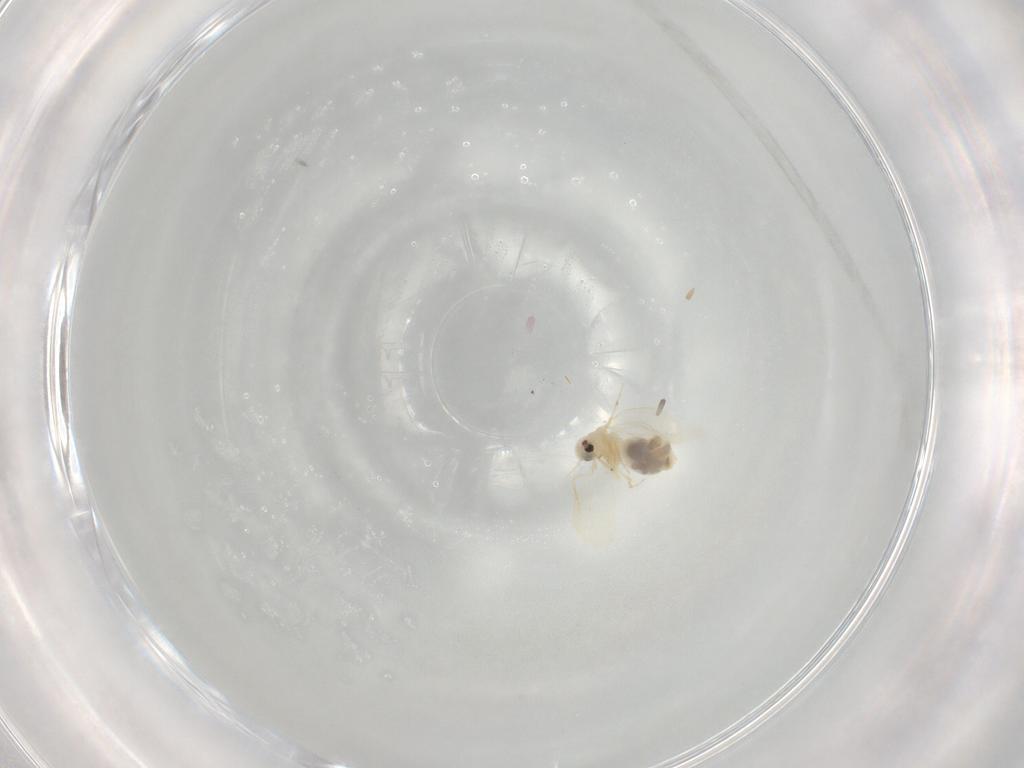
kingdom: Animalia
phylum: Arthropoda
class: Insecta
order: Hemiptera
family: Aleyrodidae
